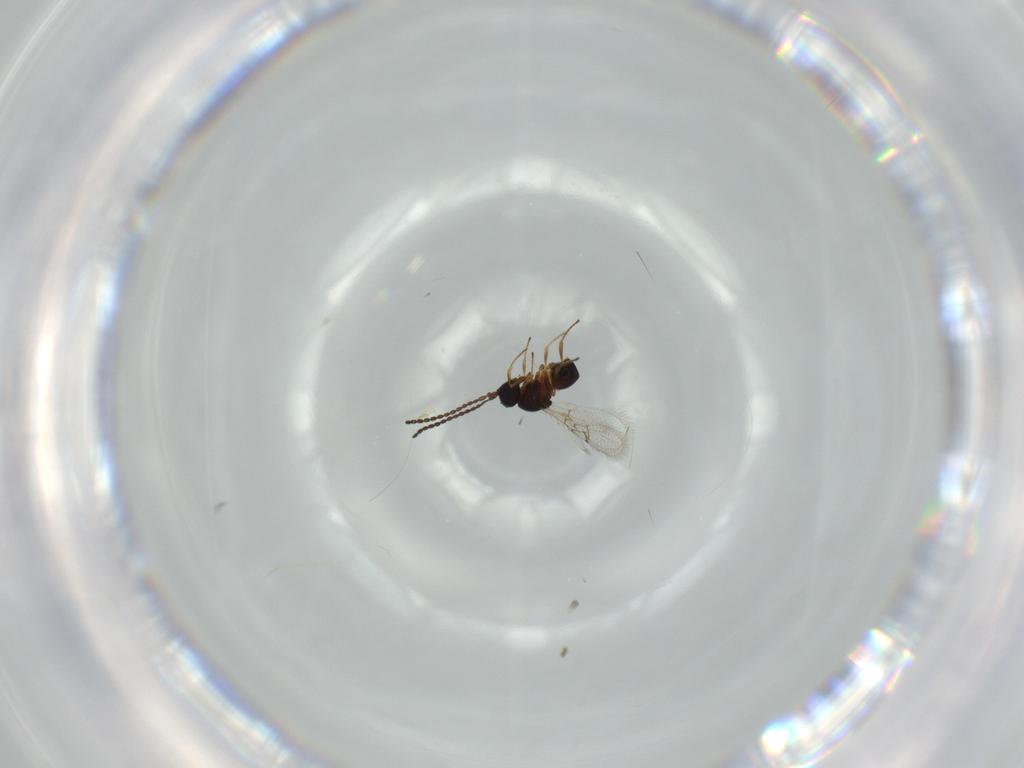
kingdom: Animalia
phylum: Arthropoda
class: Insecta
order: Hymenoptera
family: Figitidae
